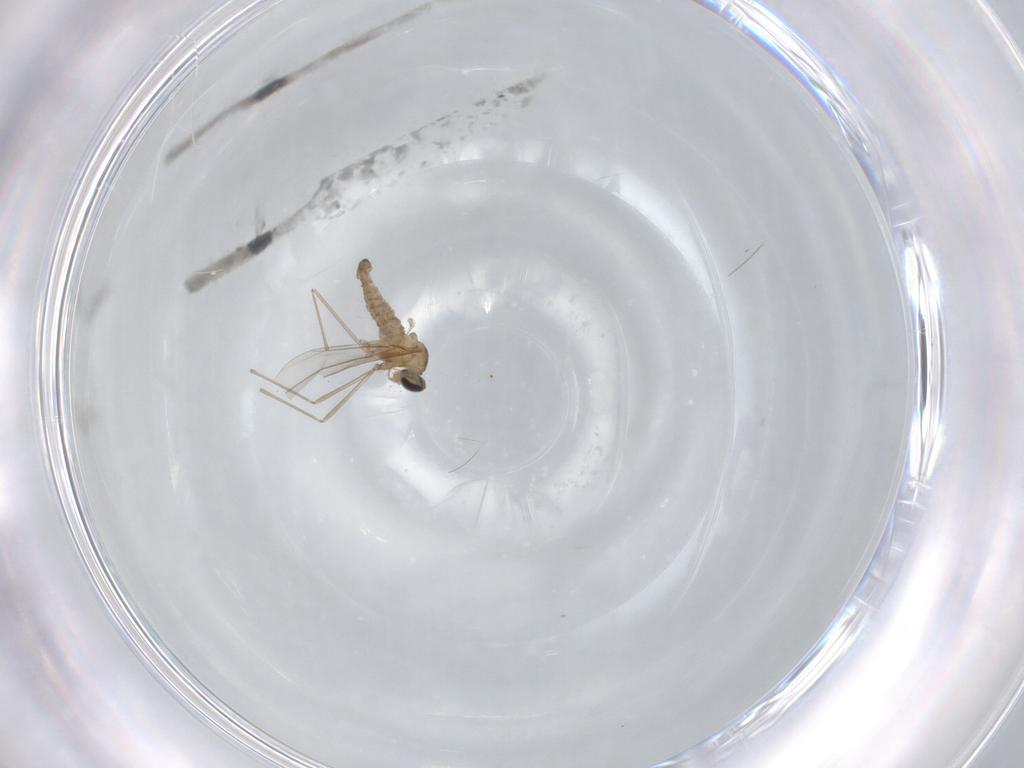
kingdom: Animalia
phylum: Arthropoda
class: Insecta
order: Diptera
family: Cecidomyiidae
